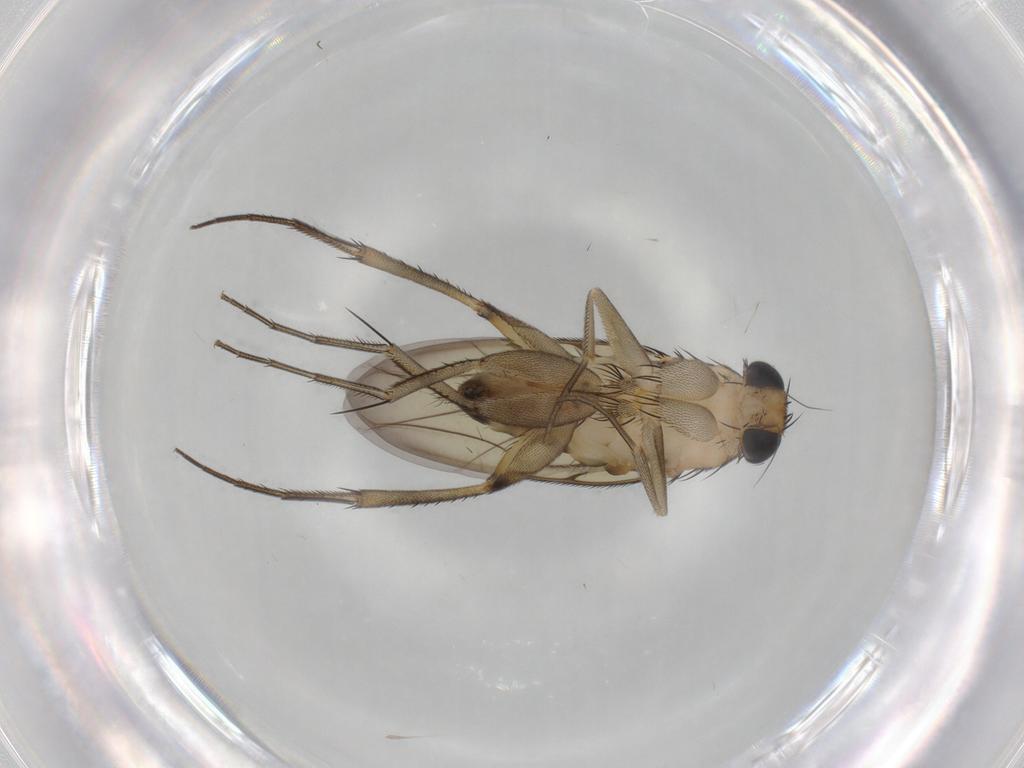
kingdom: Animalia
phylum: Arthropoda
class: Insecta
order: Diptera
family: Phoridae
